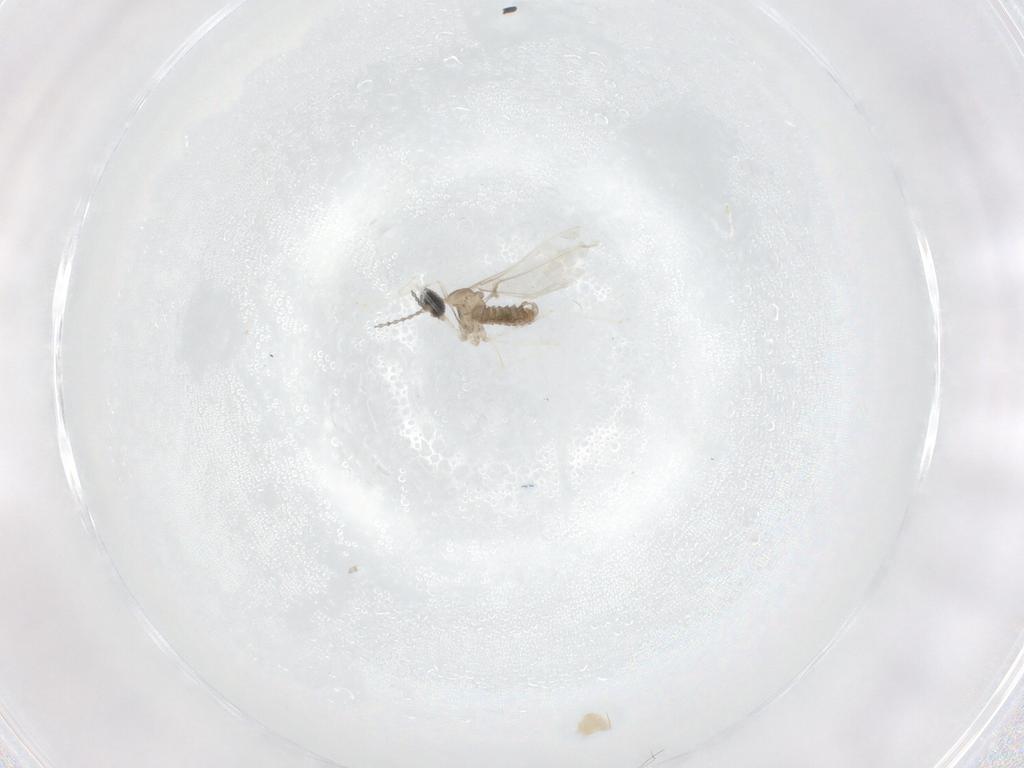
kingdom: Animalia
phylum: Arthropoda
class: Insecta
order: Diptera
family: Cecidomyiidae
